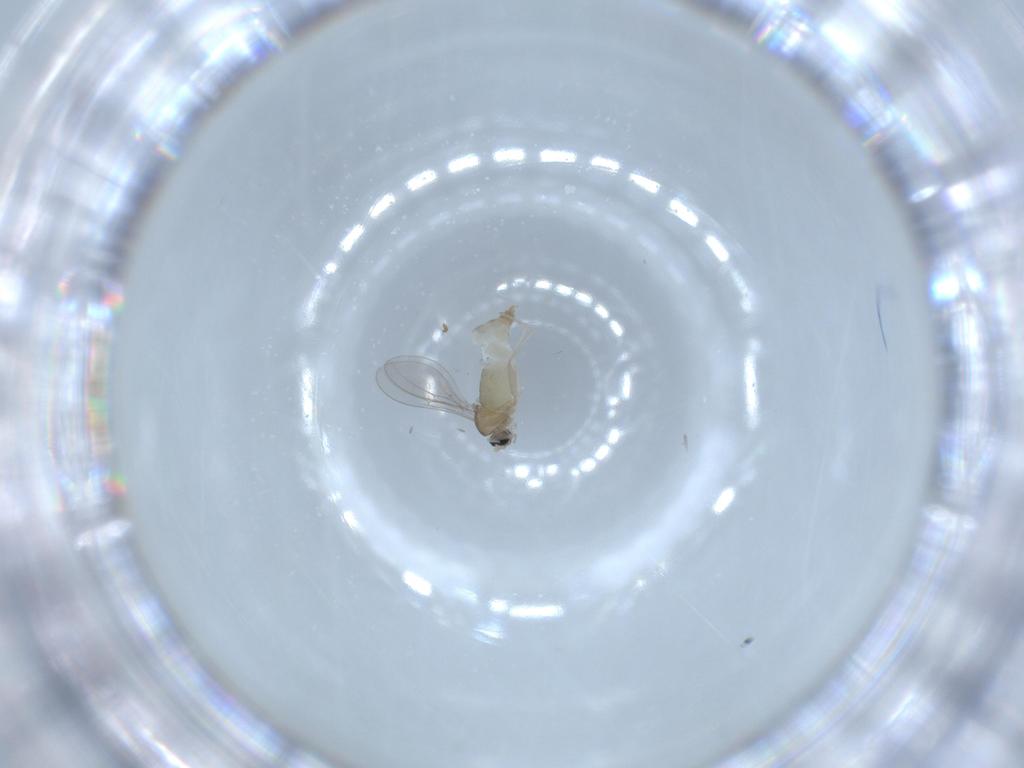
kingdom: Animalia
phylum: Arthropoda
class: Insecta
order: Diptera
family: Cecidomyiidae
